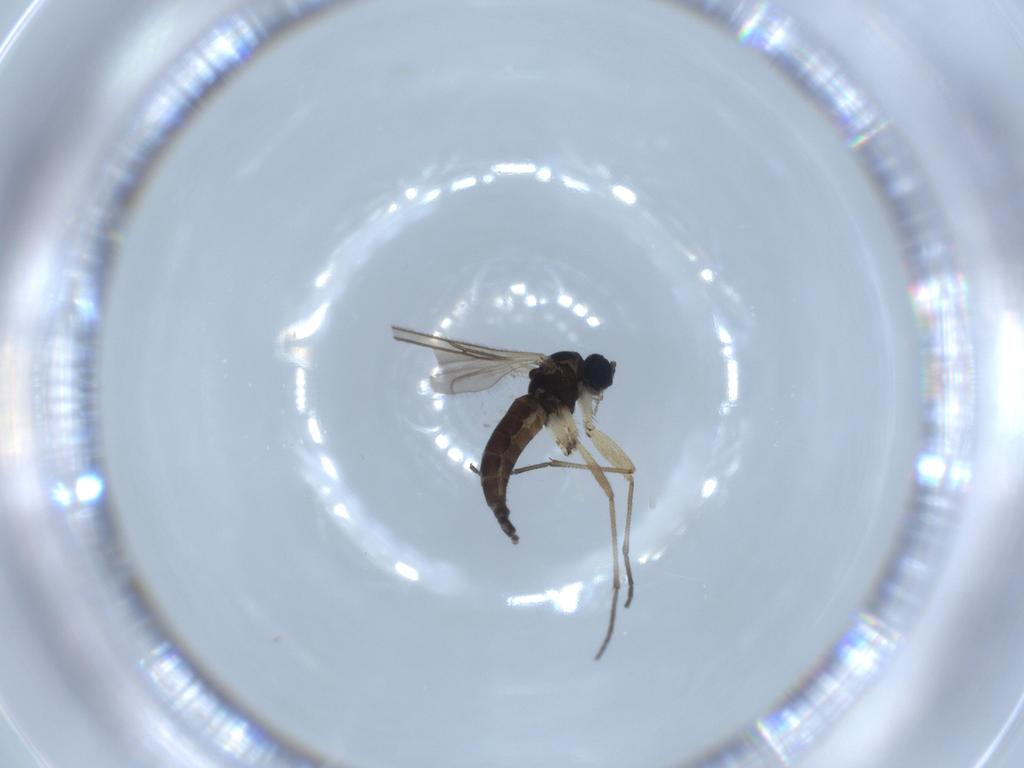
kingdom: Animalia
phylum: Arthropoda
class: Insecta
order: Diptera
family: Sciaridae
